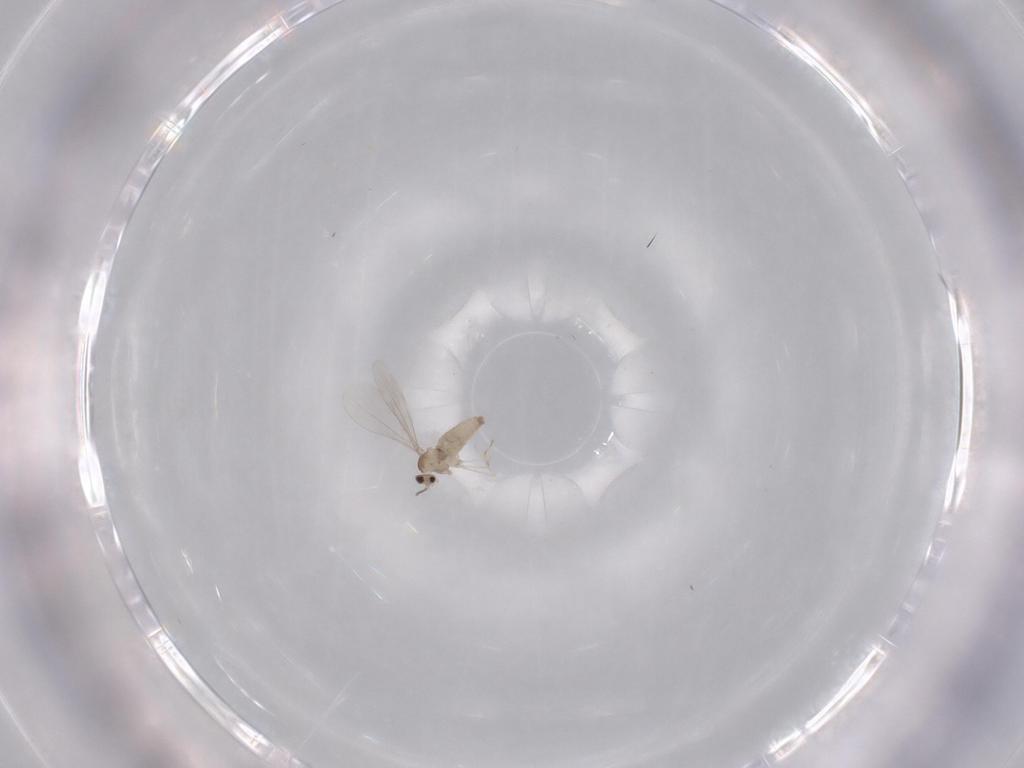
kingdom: Animalia
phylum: Arthropoda
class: Insecta
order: Diptera
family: Cecidomyiidae
